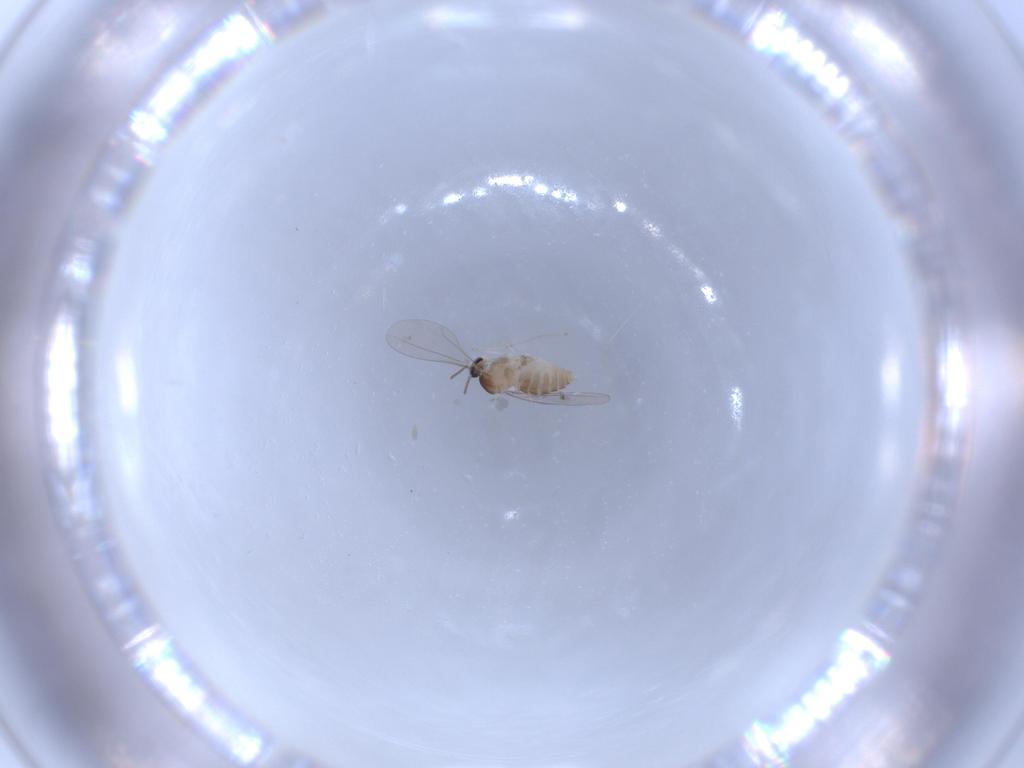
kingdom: Animalia
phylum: Arthropoda
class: Insecta
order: Diptera
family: Cecidomyiidae
